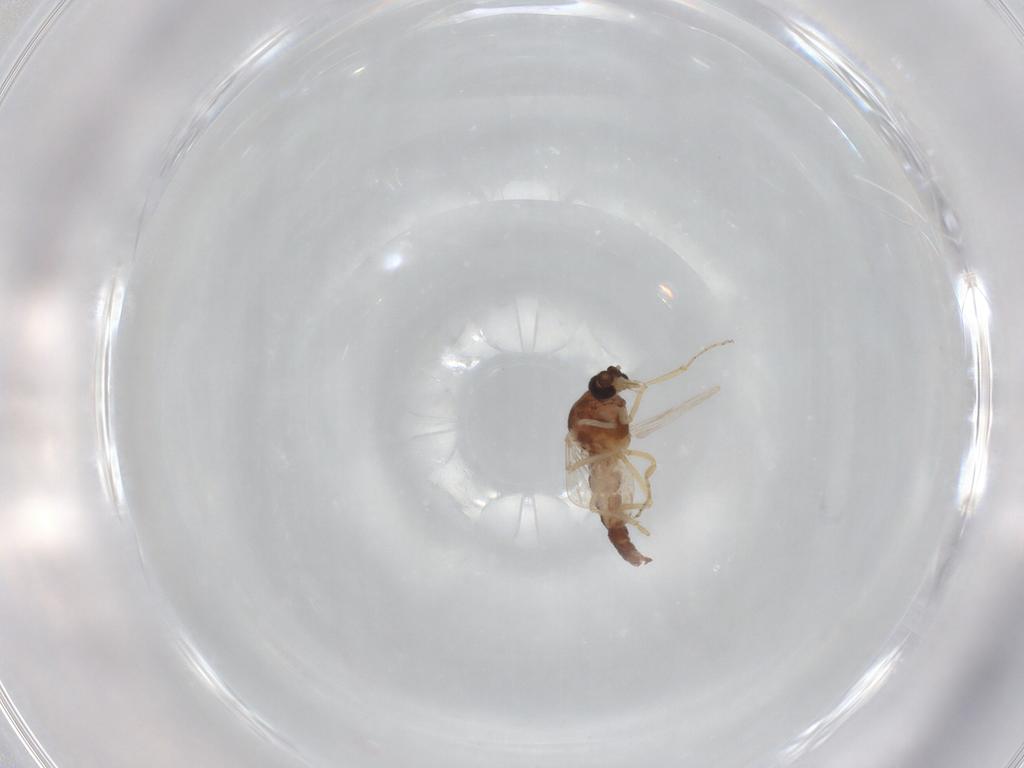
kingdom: Animalia
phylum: Arthropoda
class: Insecta
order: Diptera
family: Ceratopogonidae
